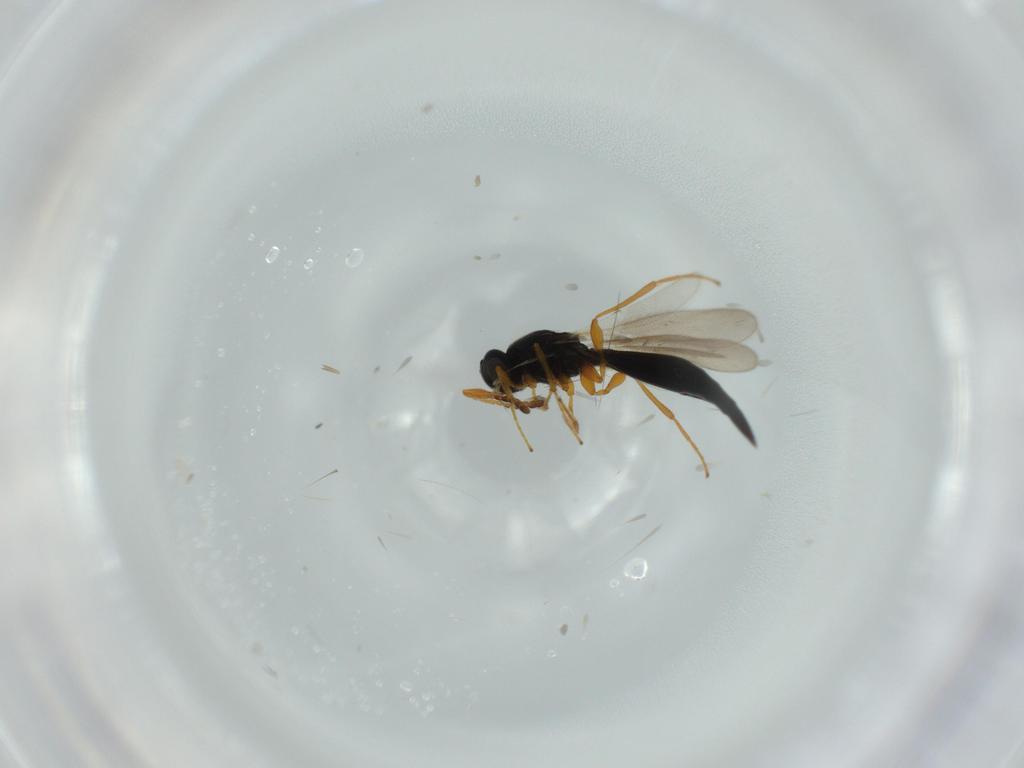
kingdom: Animalia
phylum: Arthropoda
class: Insecta
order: Hymenoptera
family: Platygastridae
